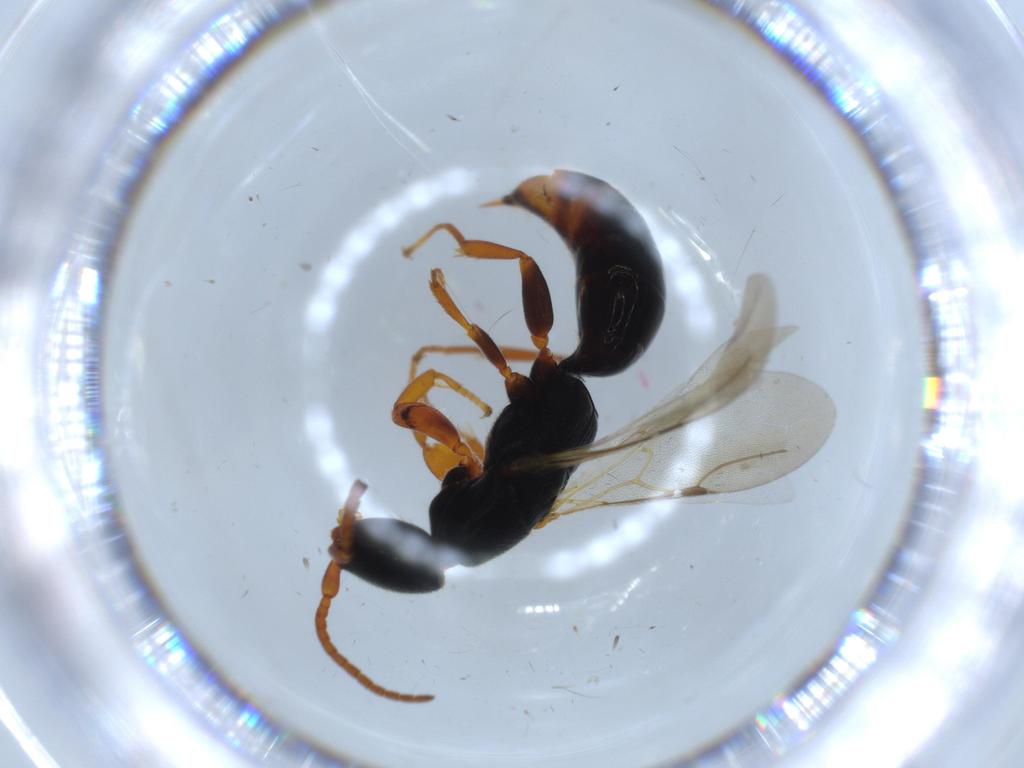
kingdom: Animalia
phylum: Arthropoda
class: Insecta
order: Hymenoptera
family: Bethylidae
